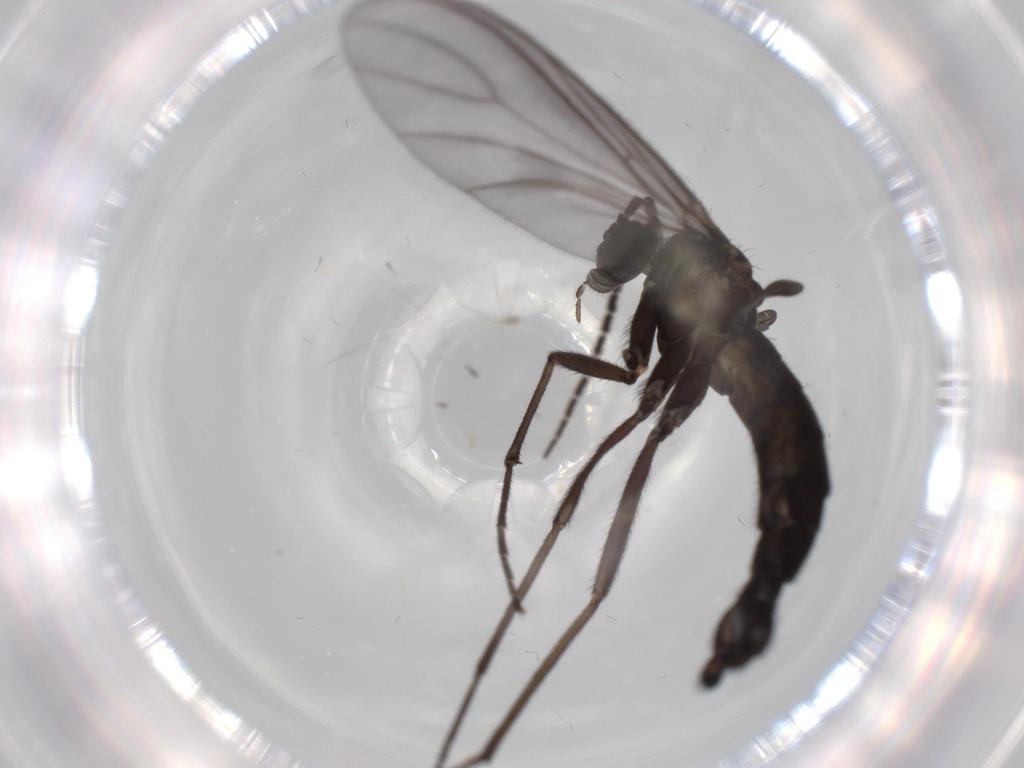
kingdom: Animalia
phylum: Arthropoda
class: Insecta
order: Diptera
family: Sciaridae
